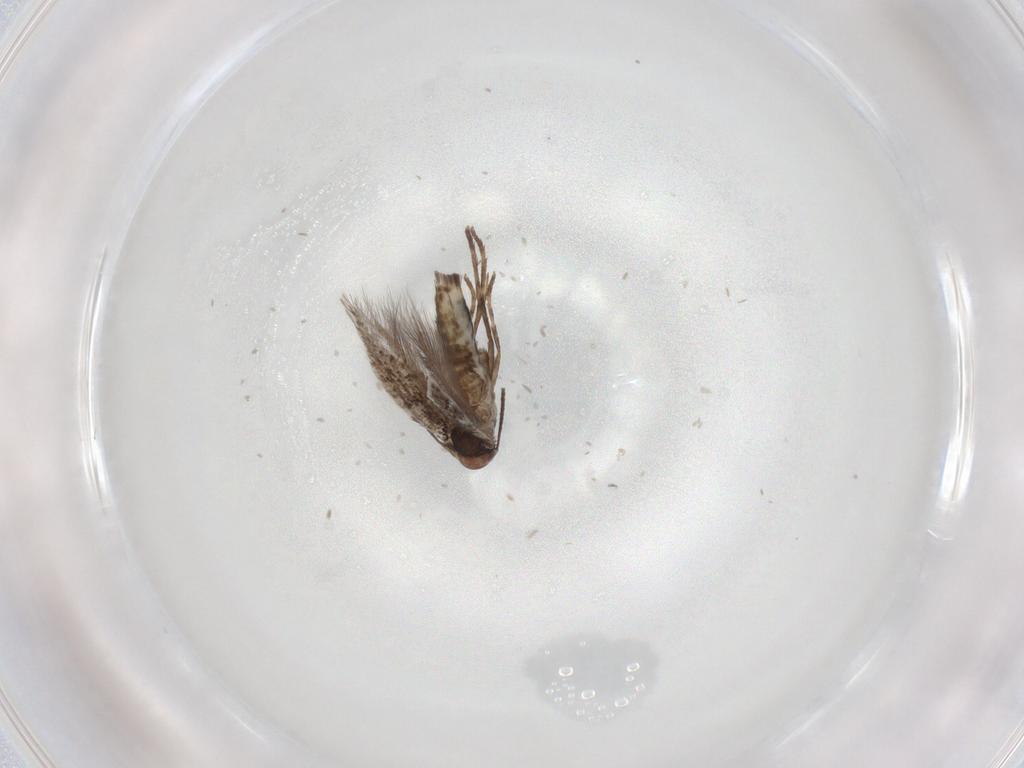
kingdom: Animalia
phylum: Arthropoda
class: Insecta
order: Lepidoptera
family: Gracillariidae
